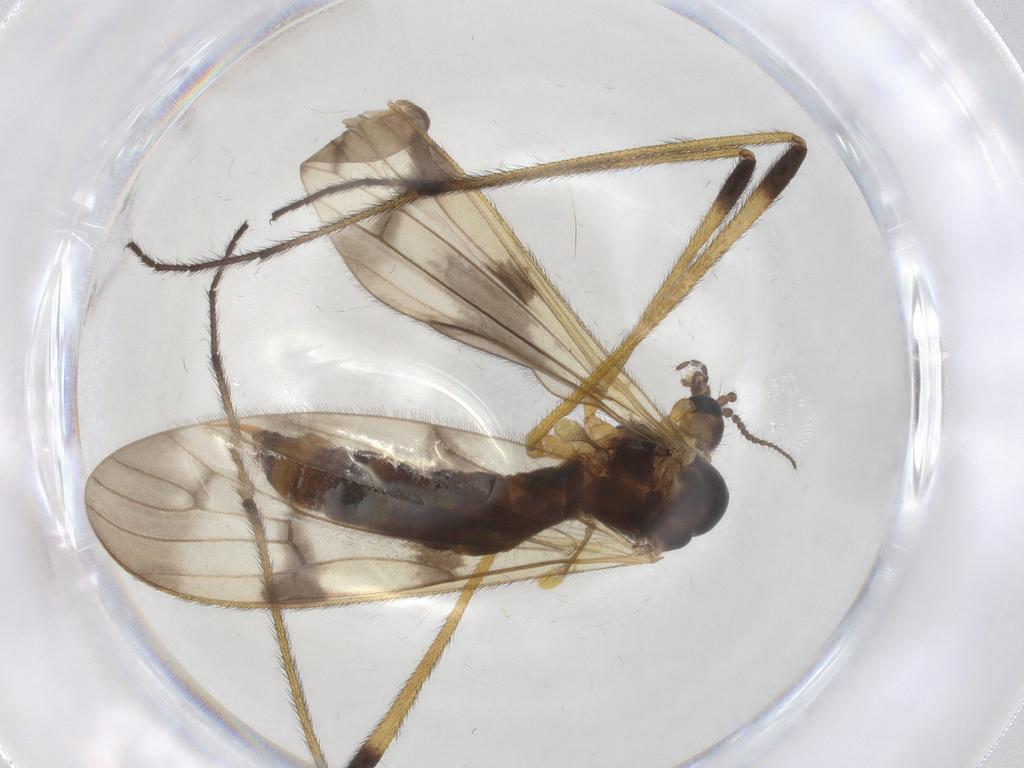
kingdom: Animalia
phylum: Arthropoda
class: Insecta
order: Diptera
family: Limoniidae
